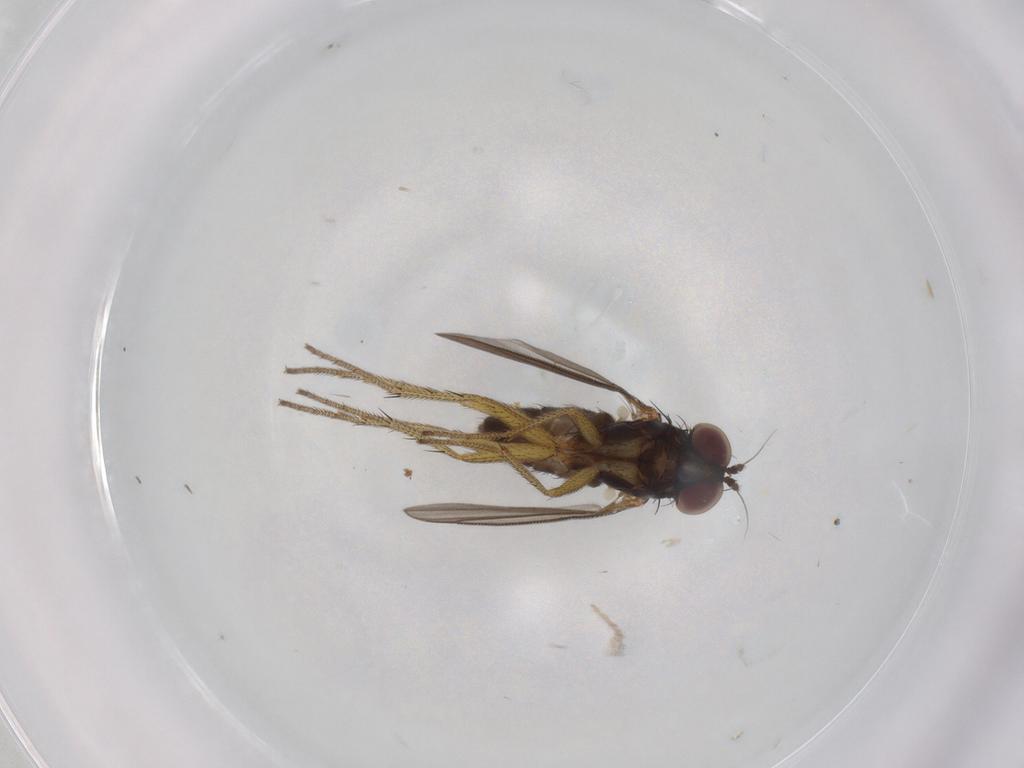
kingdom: Animalia
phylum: Arthropoda
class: Insecta
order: Diptera
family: Dolichopodidae
